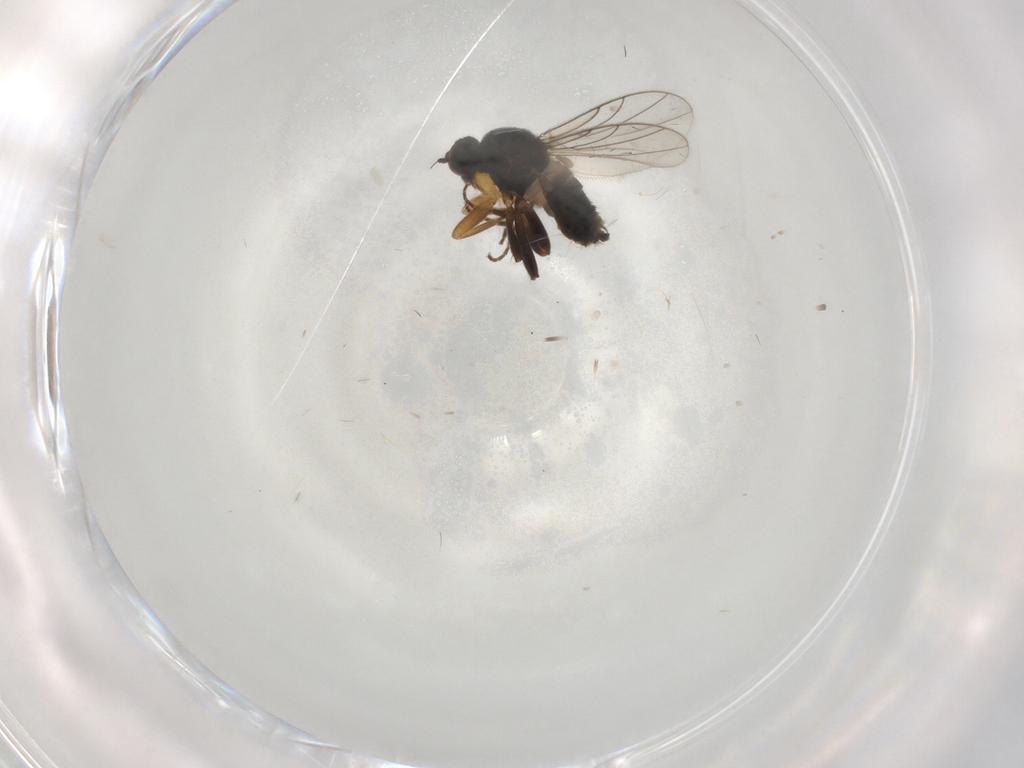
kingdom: Animalia
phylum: Arthropoda
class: Insecta
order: Diptera
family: Hybotidae
